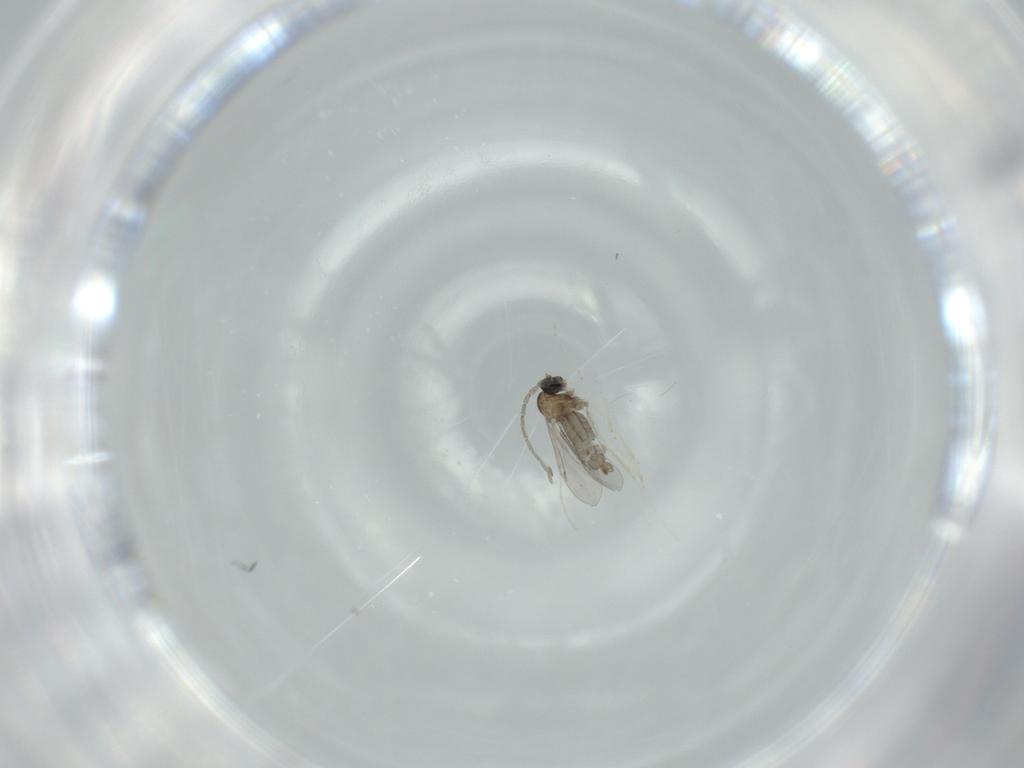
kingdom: Animalia
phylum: Arthropoda
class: Insecta
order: Diptera
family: Cecidomyiidae
